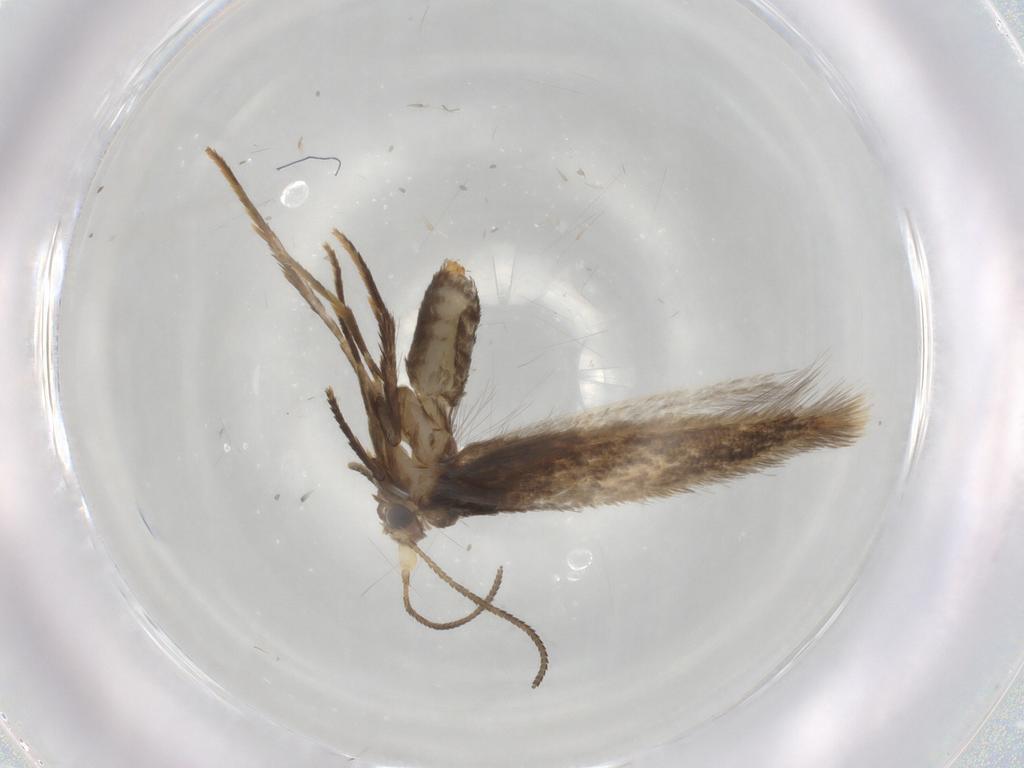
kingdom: Animalia
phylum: Arthropoda
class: Insecta
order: Lepidoptera
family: Nepticulidae
